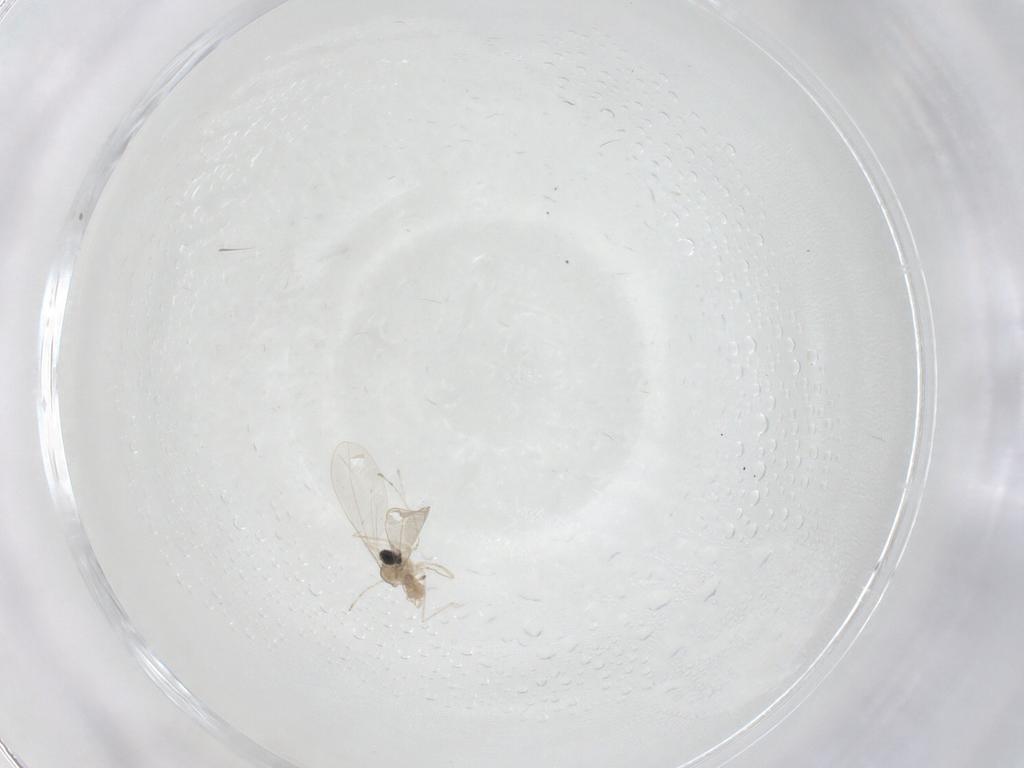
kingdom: Animalia
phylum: Arthropoda
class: Insecta
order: Diptera
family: Cecidomyiidae
